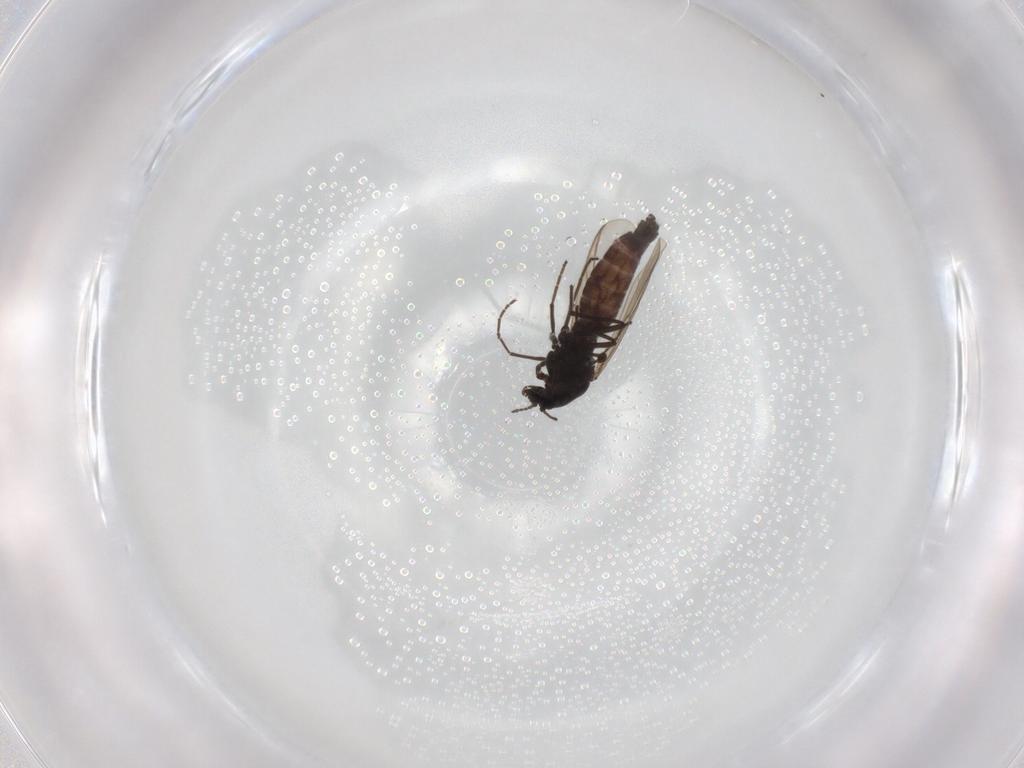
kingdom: Animalia
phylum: Arthropoda
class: Insecta
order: Diptera
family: Chironomidae
